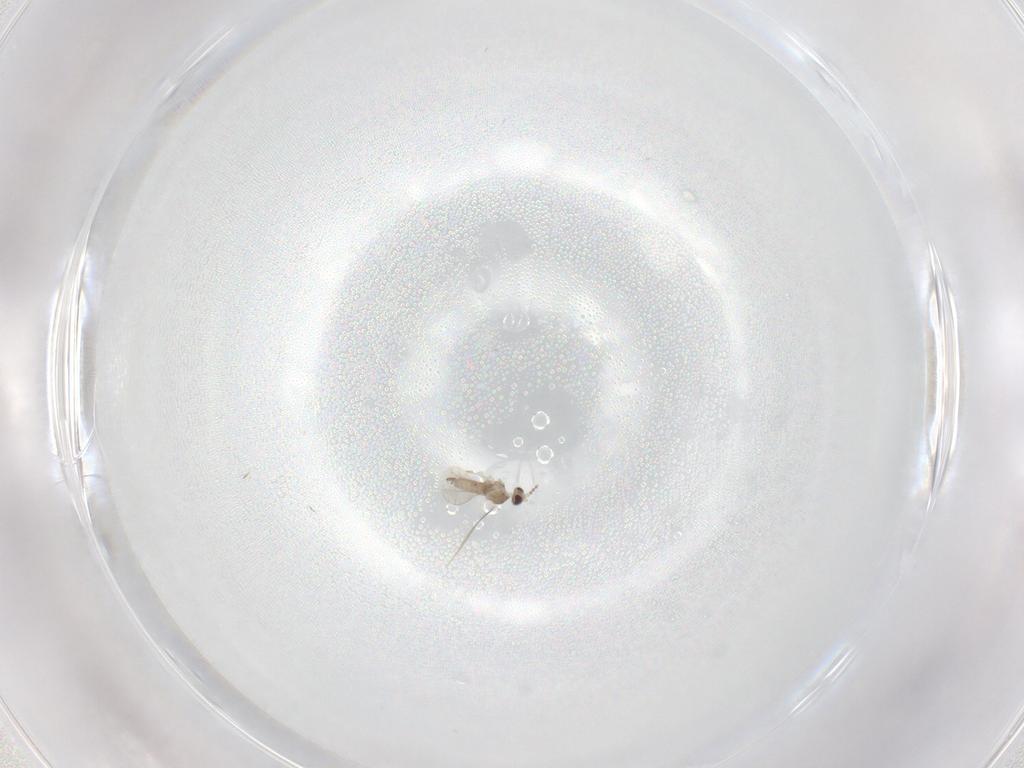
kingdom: Animalia
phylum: Arthropoda
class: Insecta
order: Diptera
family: Cecidomyiidae
